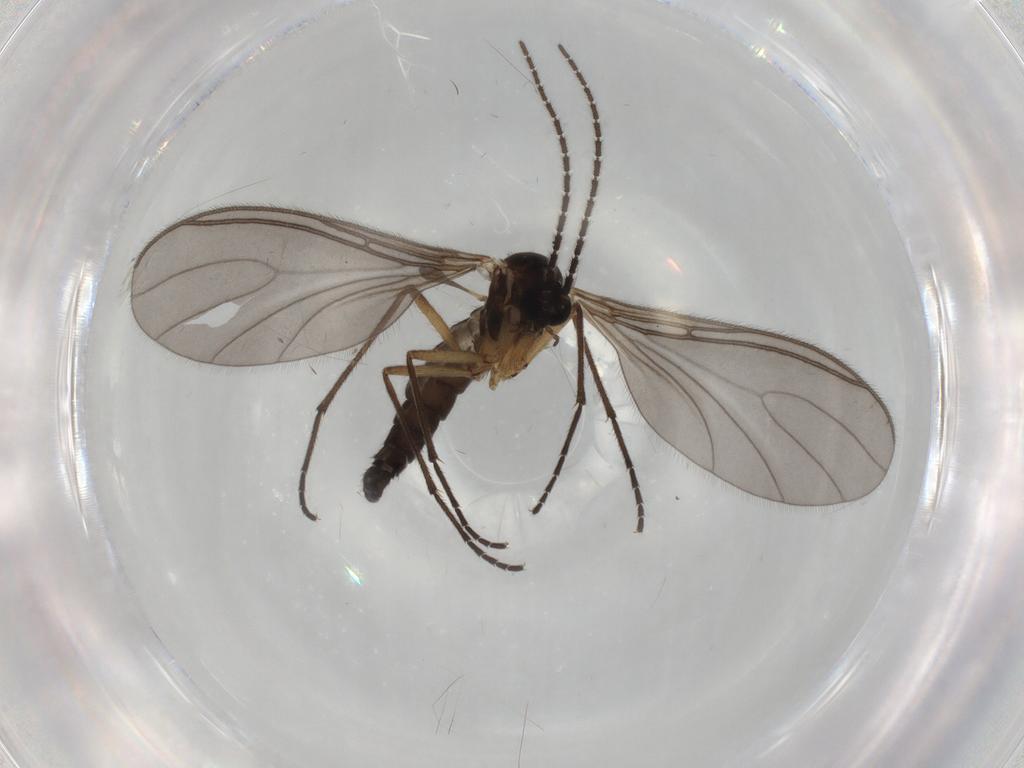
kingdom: Animalia
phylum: Arthropoda
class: Insecta
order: Diptera
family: Sciaridae
